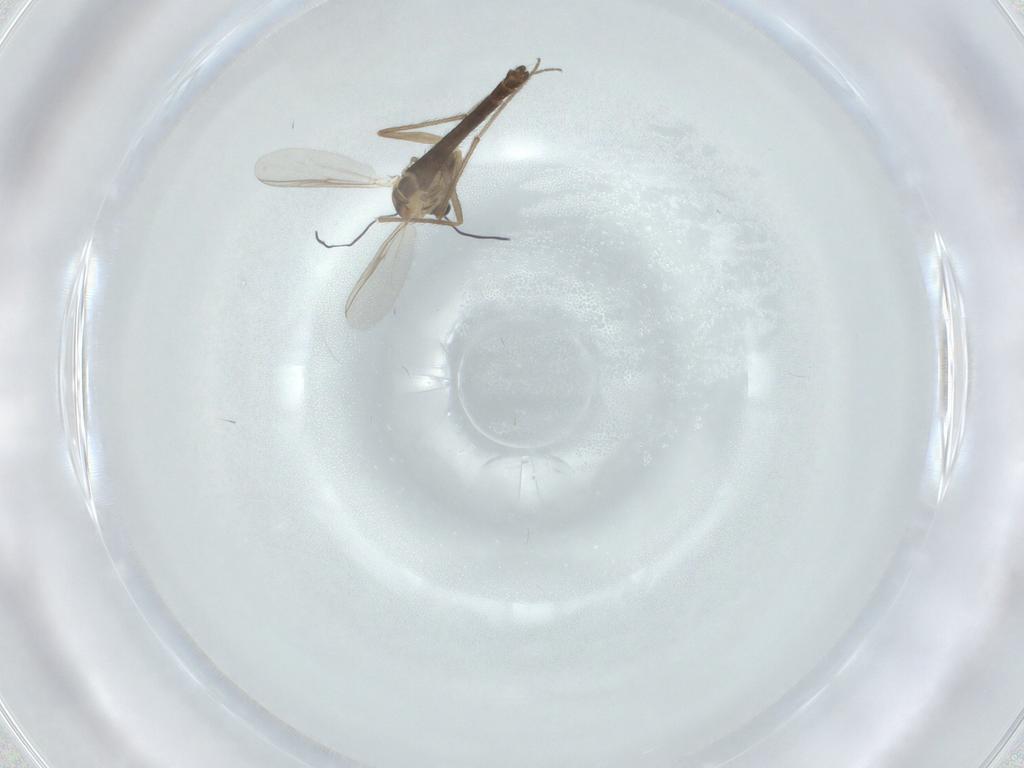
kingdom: Animalia
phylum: Arthropoda
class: Insecta
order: Diptera
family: Chironomidae
